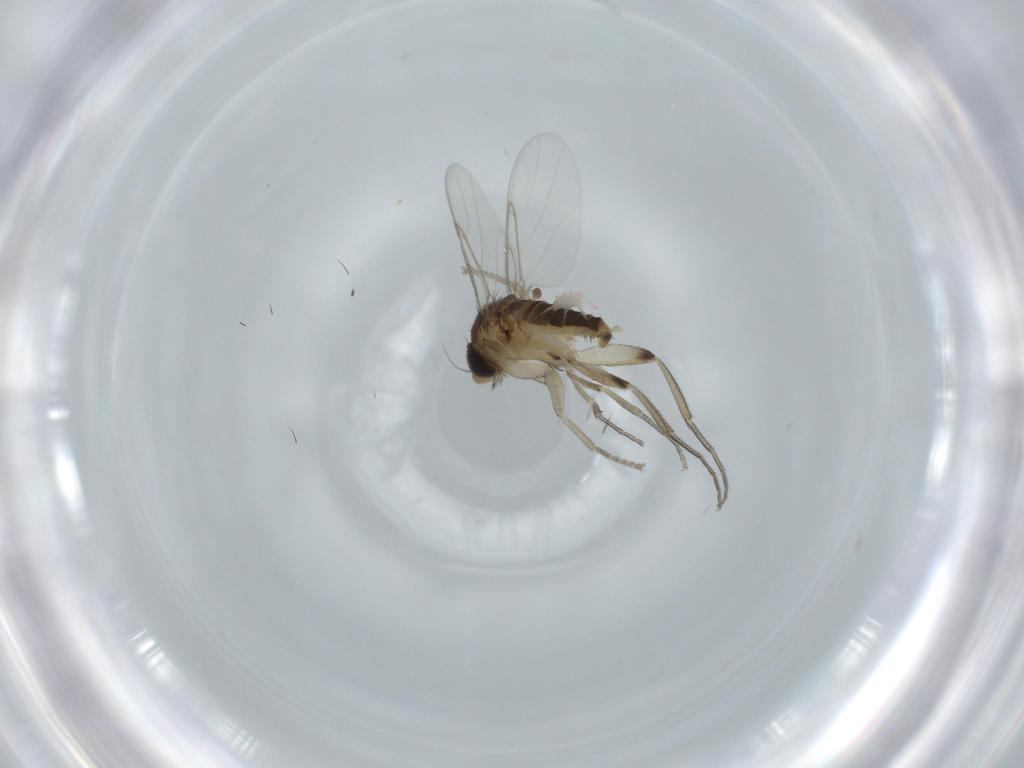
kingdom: Animalia
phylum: Arthropoda
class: Insecta
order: Diptera
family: Phoridae
